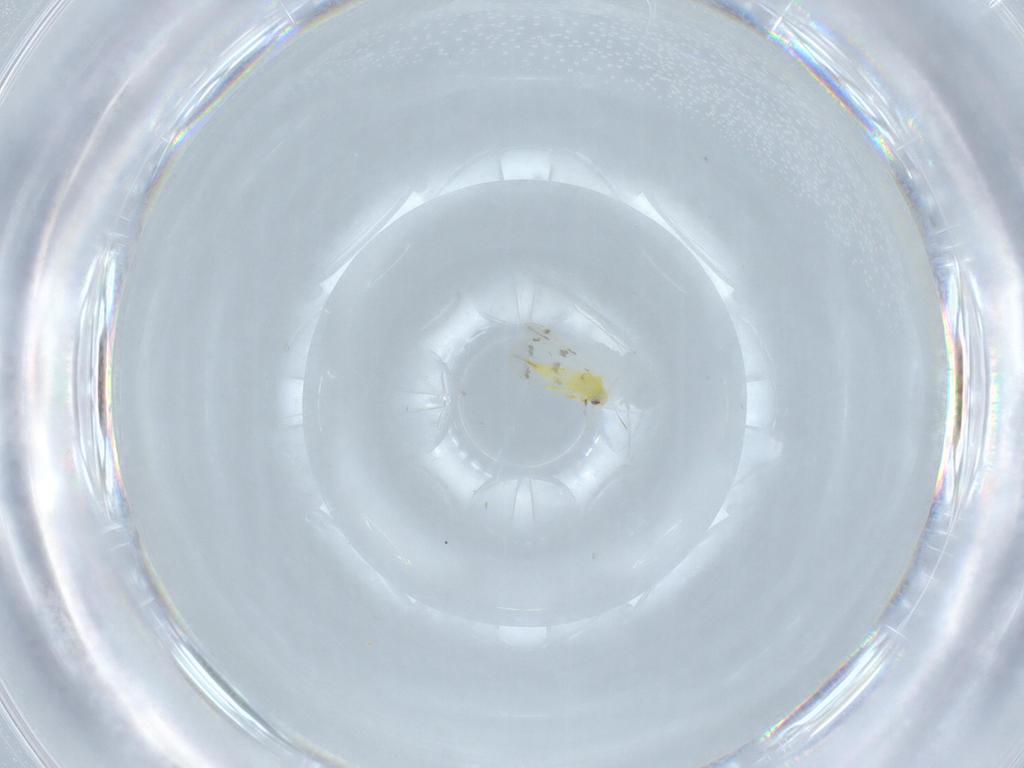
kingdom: Animalia
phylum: Arthropoda
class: Insecta
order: Hemiptera
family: Aleyrodidae
